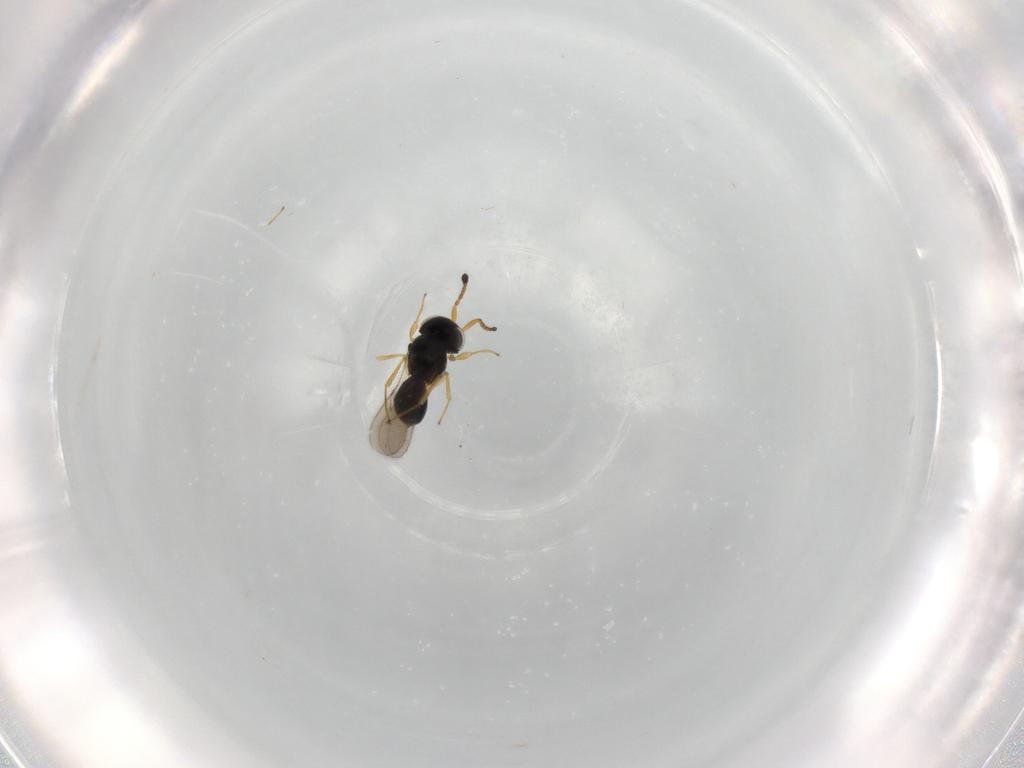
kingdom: Animalia
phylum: Arthropoda
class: Insecta
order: Hymenoptera
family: Scelionidae
